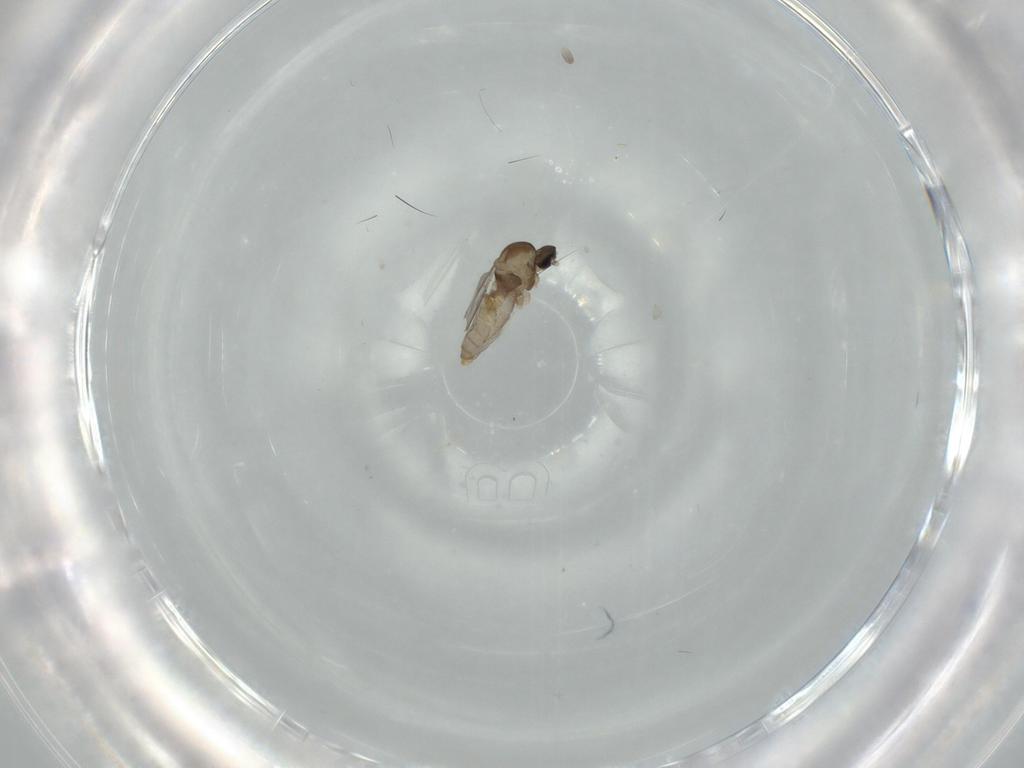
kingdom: Animalia
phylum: Arthropoda
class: Insecta
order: Diptera
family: Cecidomyiidae
